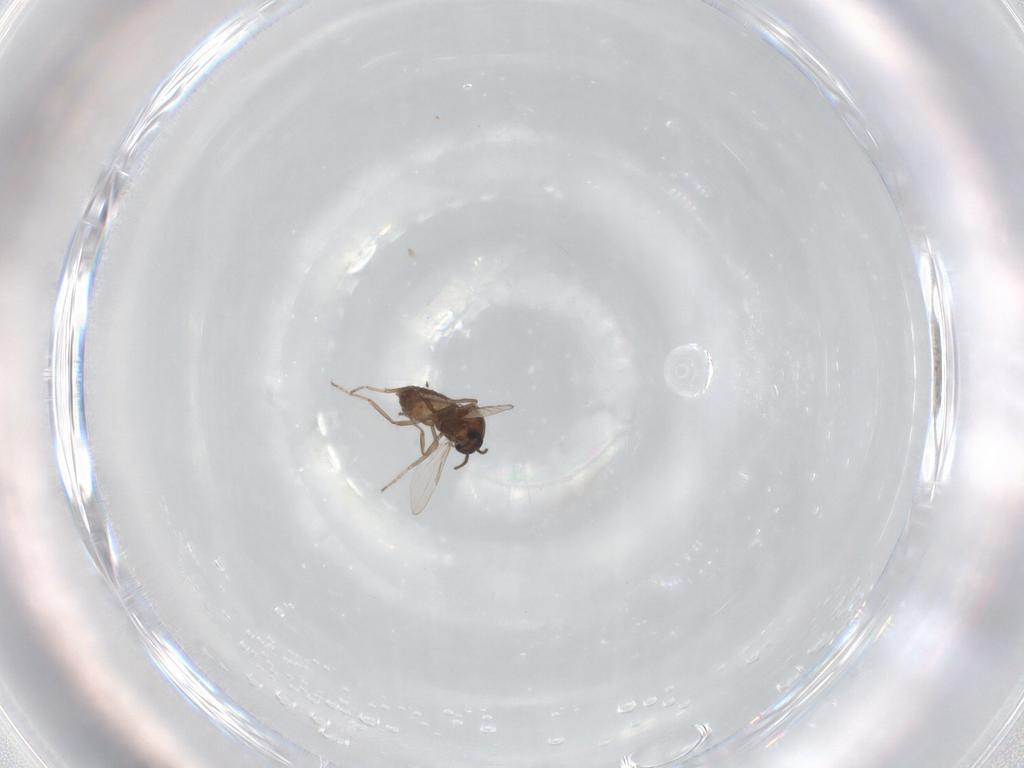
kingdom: Animalia
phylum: Arthropoda
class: Insecta
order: Diptera
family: Ceratopogonidae
